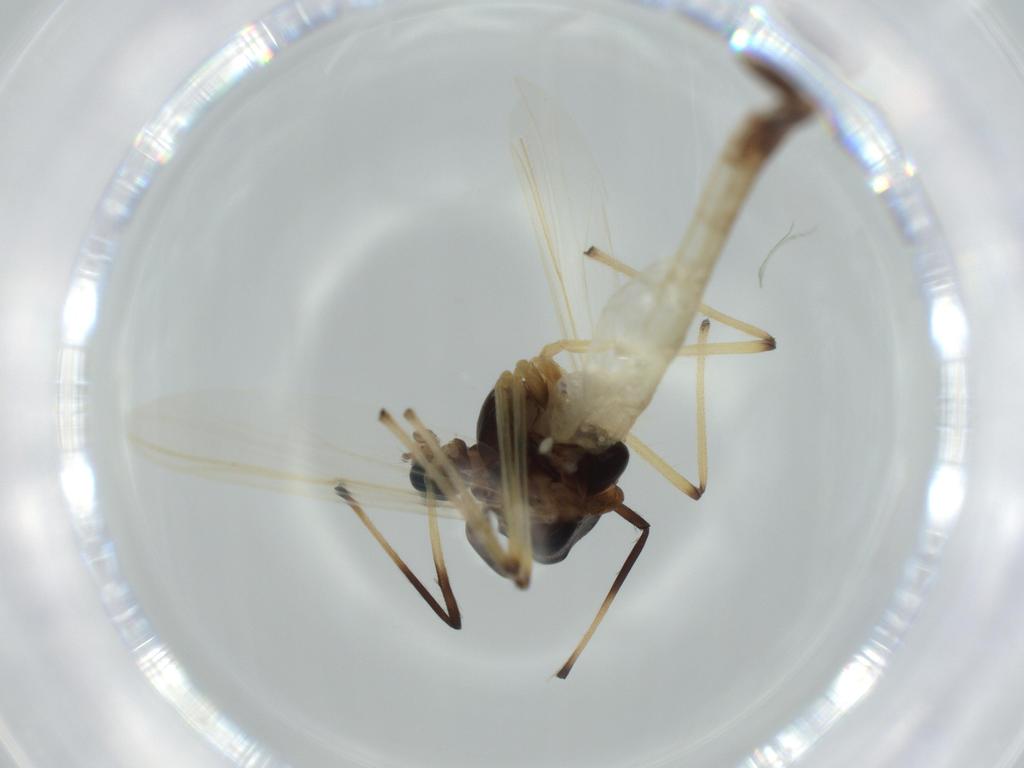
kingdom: Animalia
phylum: Arthropoda
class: Insecta
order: Diptera
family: Chironomidae
